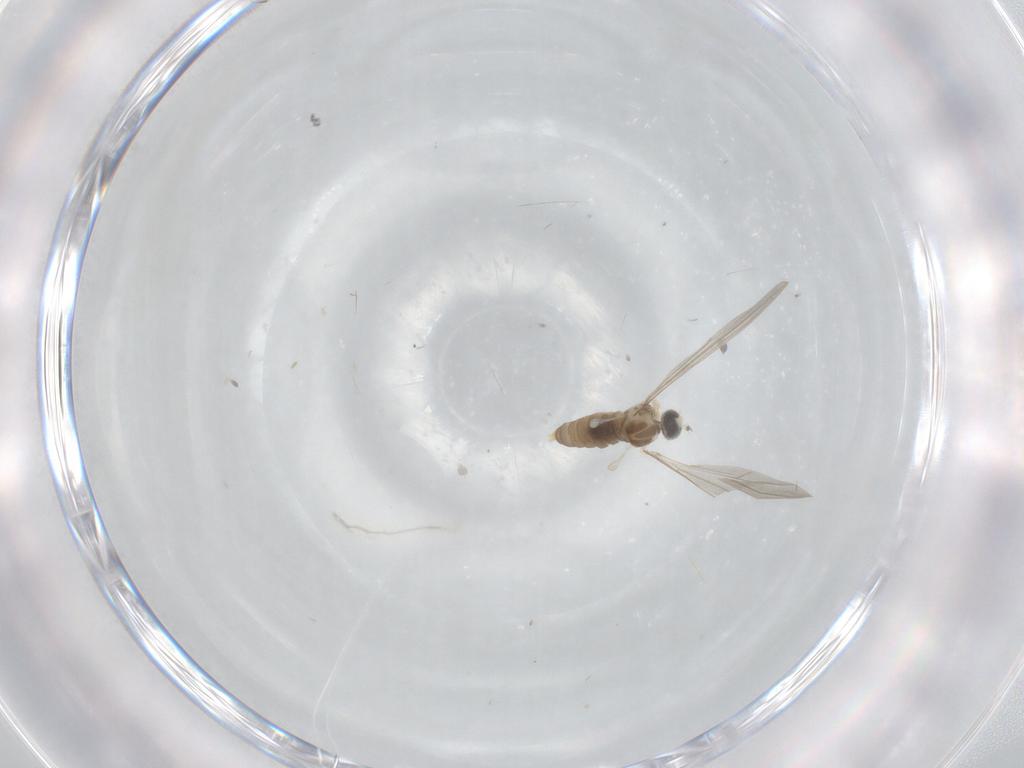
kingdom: Animalia
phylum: Arthropoda
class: Insecta
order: Diptera
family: Cecidomyiidae
